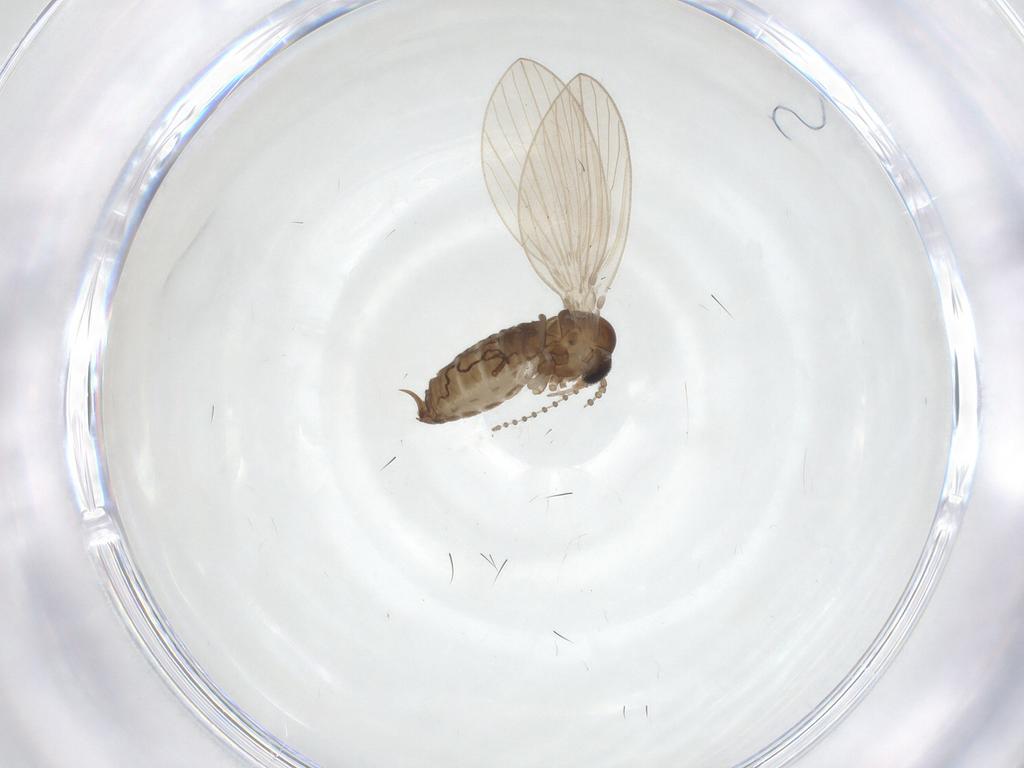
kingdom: Animalia
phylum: Arthropoda
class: Insecta
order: Diptera
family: Psychodidae
